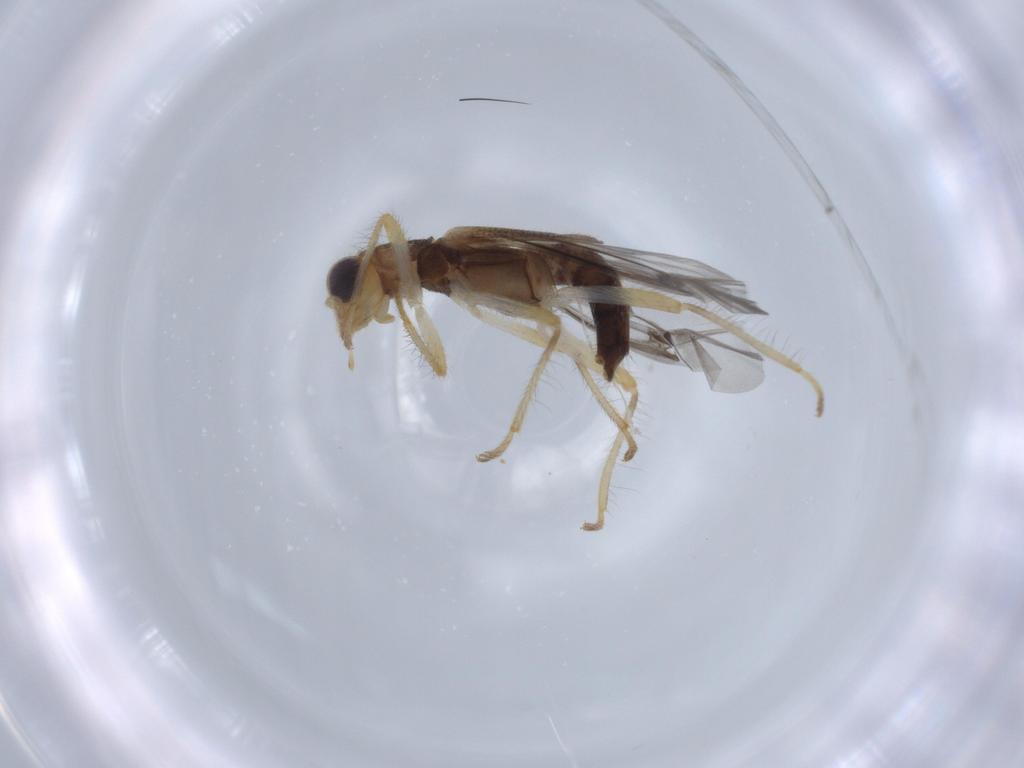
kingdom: Animalia
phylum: Arthropoda
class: Insecta
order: Coleoptera
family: Cleridae
